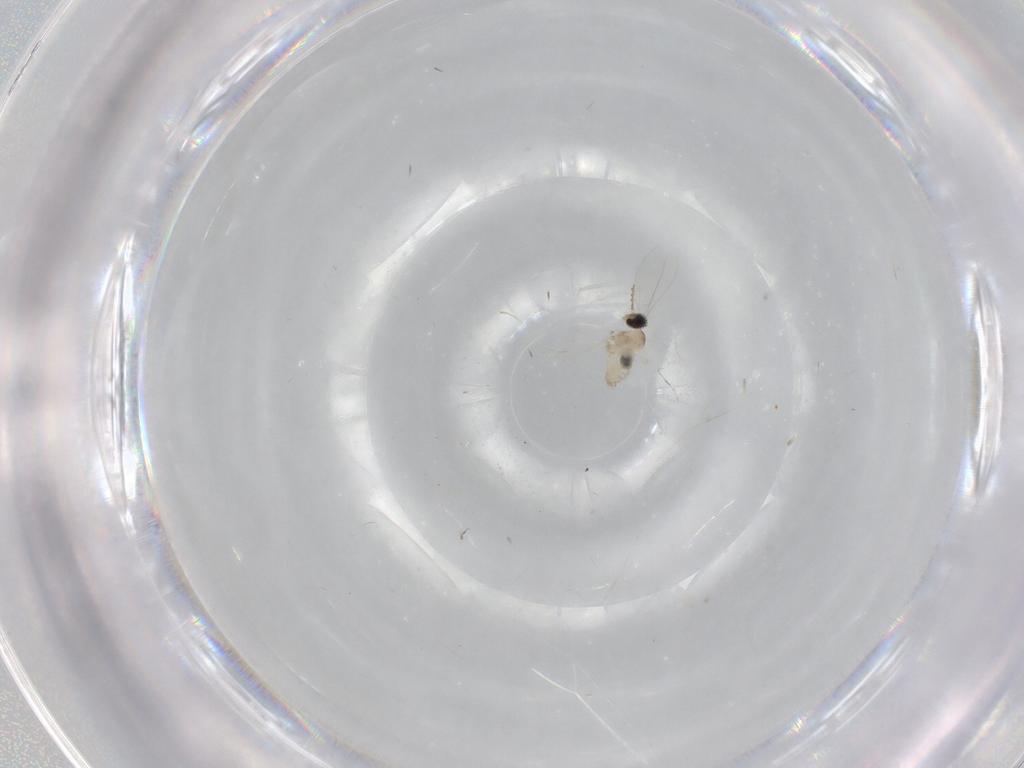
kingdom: Animalia
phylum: Arthropoda
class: Insecta
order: Diptera
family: Cecidomyiidae
